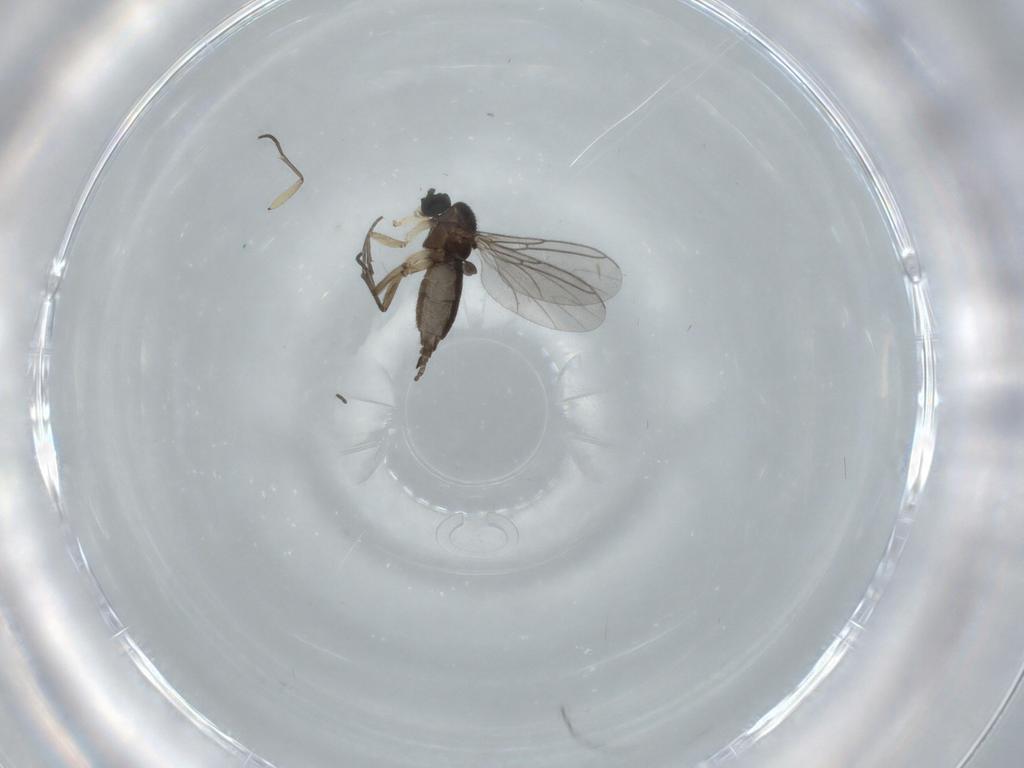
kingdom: Animalia
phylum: Arthropoda
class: Insecta
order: Diptera
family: Sciaridae
